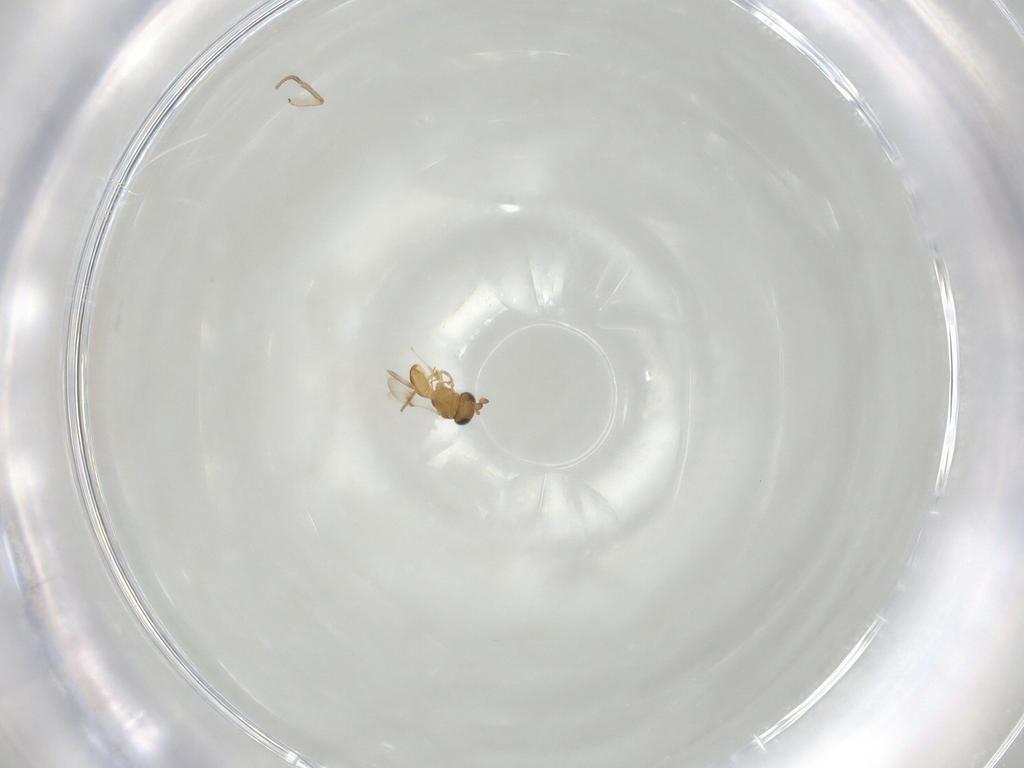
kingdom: Animalia
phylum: Arthropoda
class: Insecta
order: Hymenoptera
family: Scelionidae
